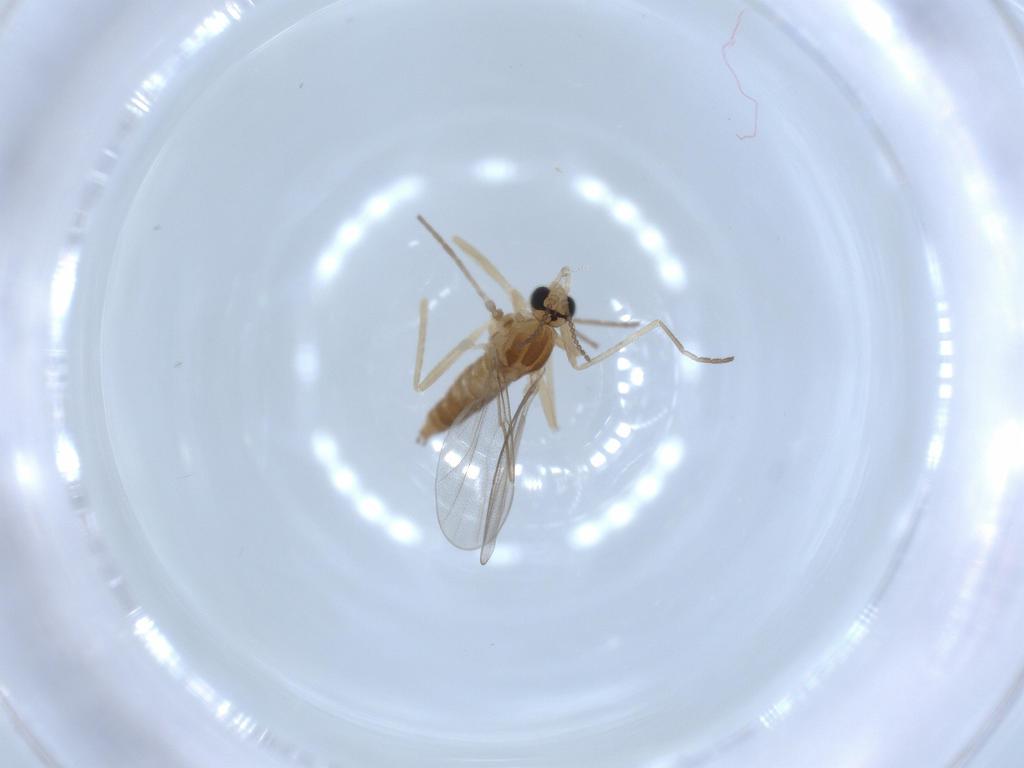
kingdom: Animalia
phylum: Arthropoda
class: Insecta
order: Diptera
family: Cecidomyiidae
